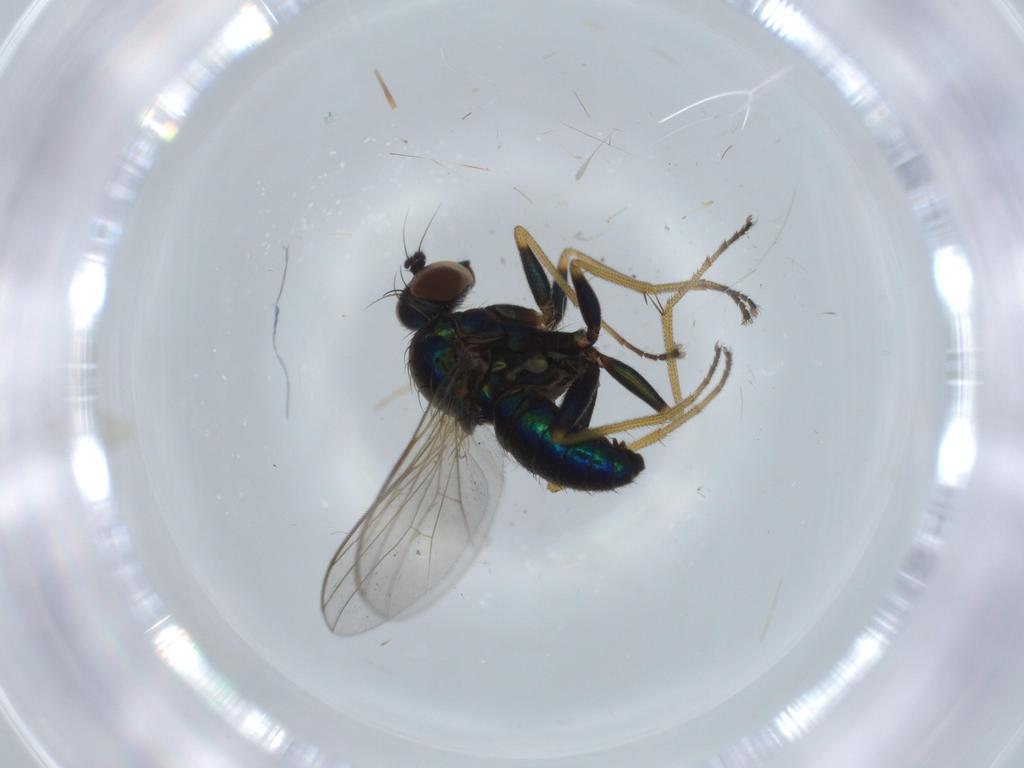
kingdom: Animalia
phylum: Arthropoda
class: Insecta
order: Diptera
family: Dolichopodidae
